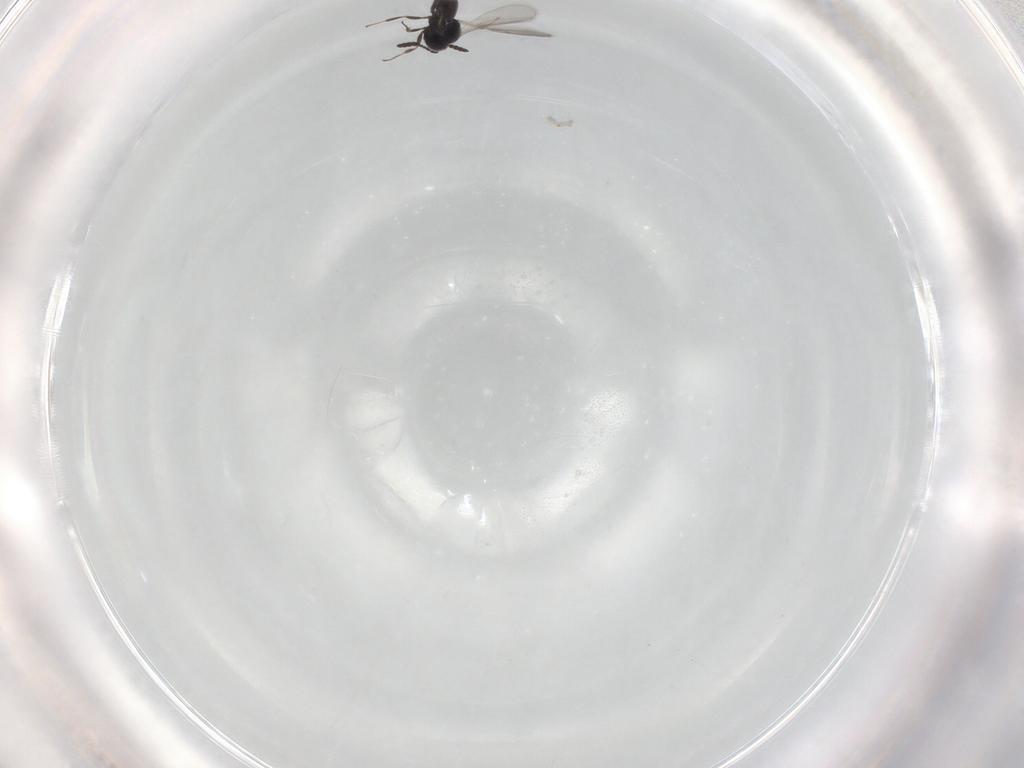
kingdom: Animalia
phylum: Arthropoda
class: Insecta
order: Hymenoptera
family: Scelionidae
